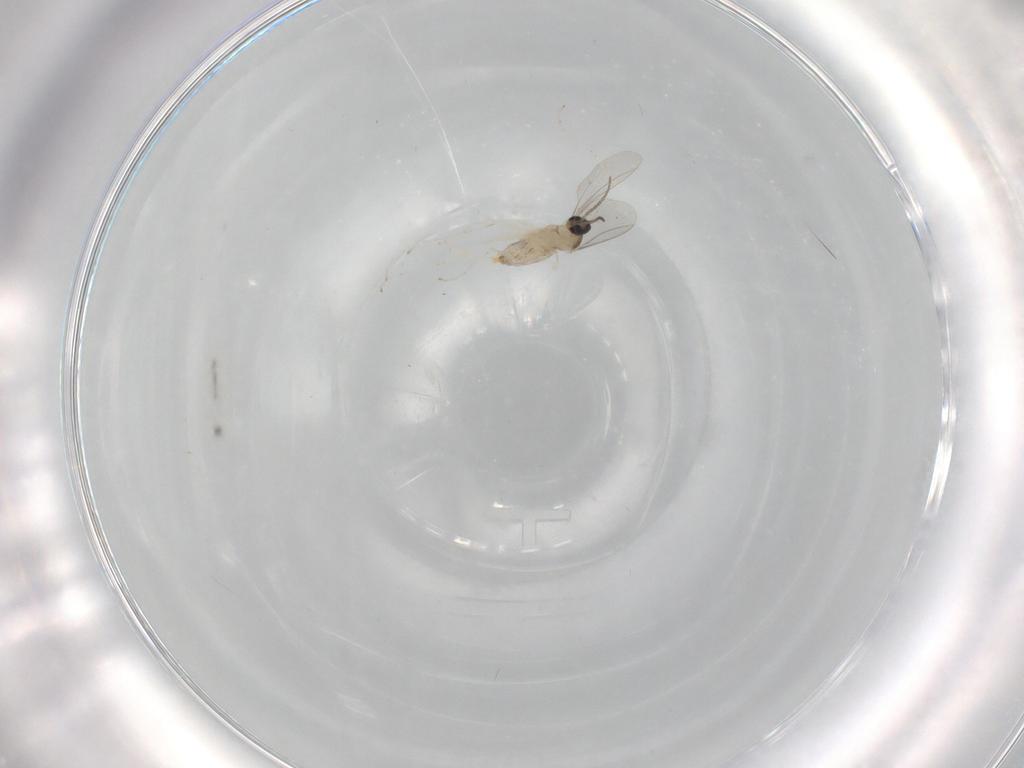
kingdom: Animalia
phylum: Arthropoda
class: Insecta
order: Diptera
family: Cecidomyiidae
